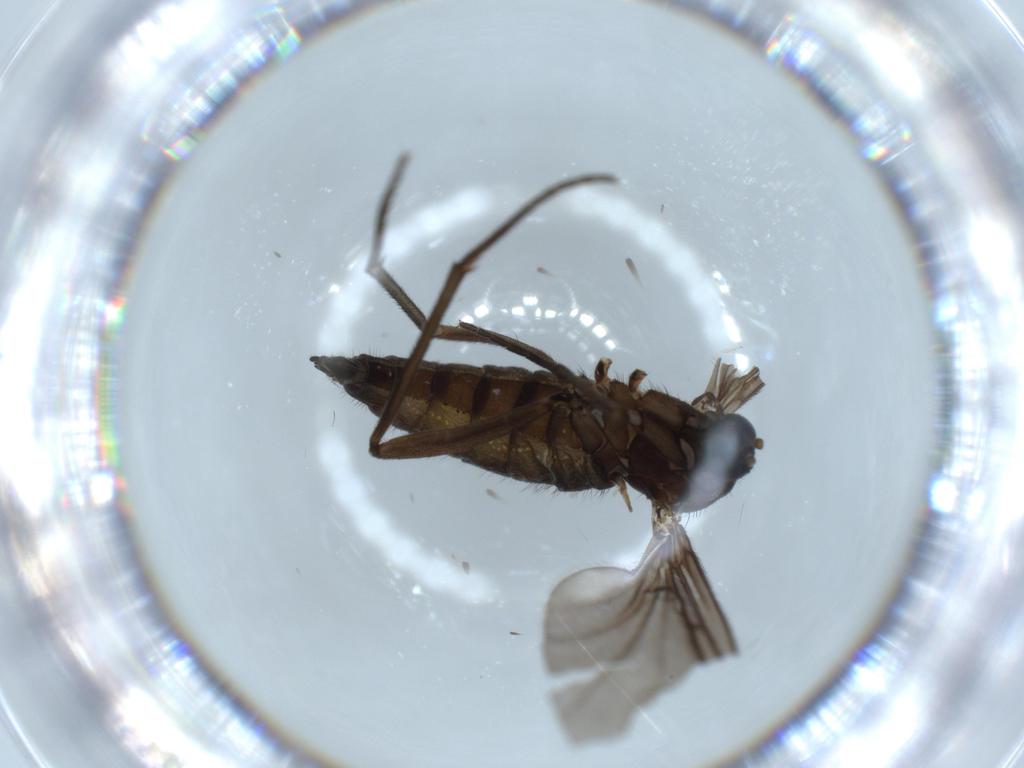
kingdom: Animalia
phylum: Arthropoda
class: Insecta
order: Diptera
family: Sciaridae
